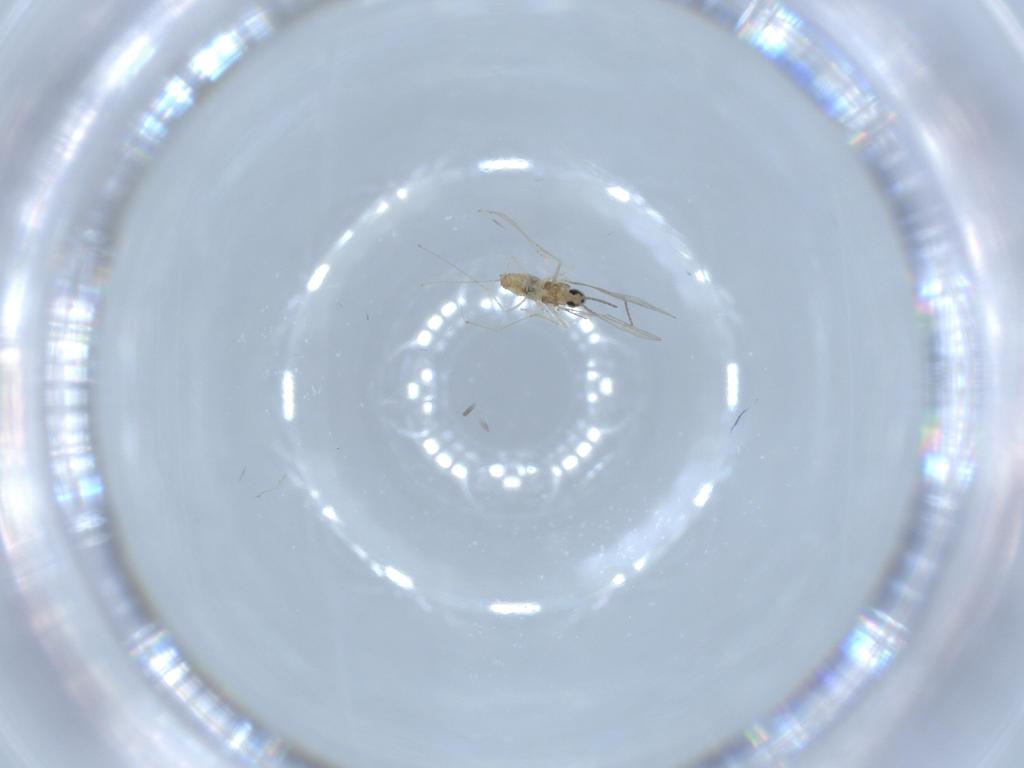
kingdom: Animalia
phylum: Arthropoda
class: Insecta
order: Diptera
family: Cecidomyiidae
